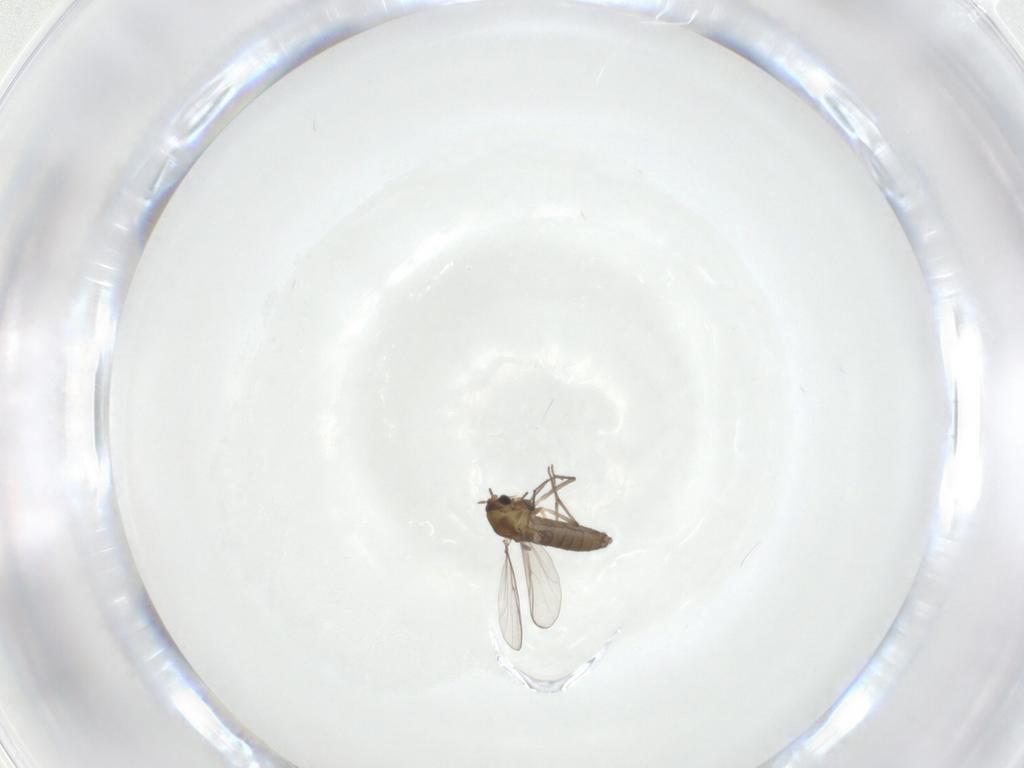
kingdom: Animalia
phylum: Arthropoda
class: Insecta
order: Diptera
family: Chironomidae
